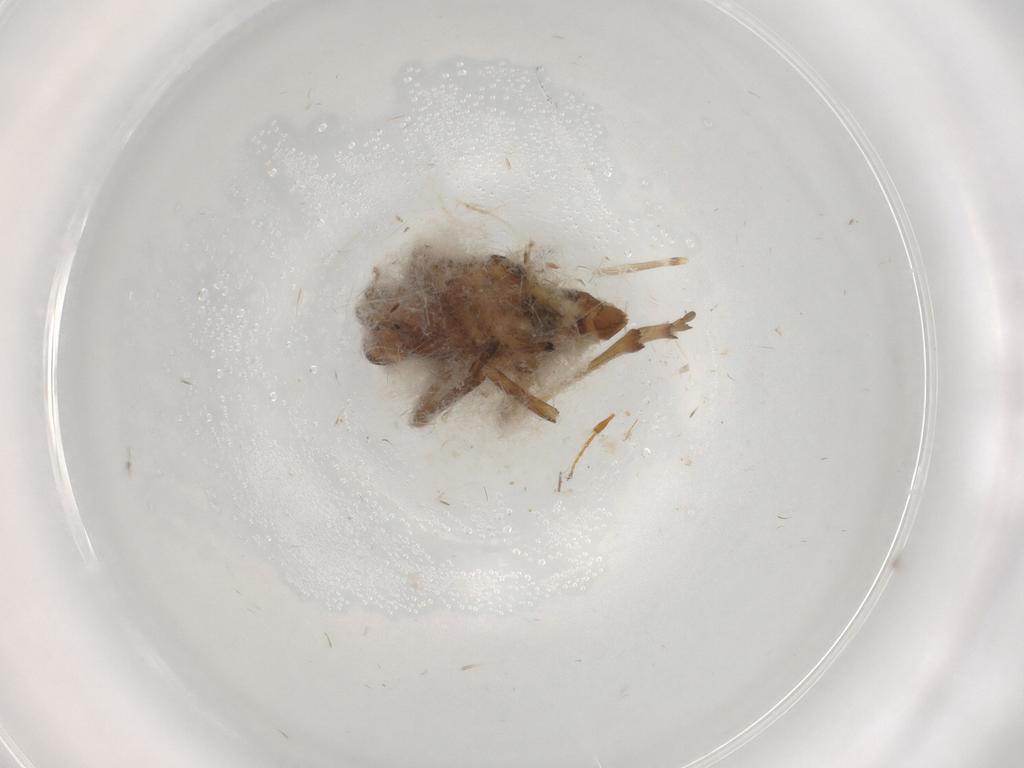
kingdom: Animalia
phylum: Arthropoda
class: Insecta
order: Hemiptera
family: Meenoplidae
